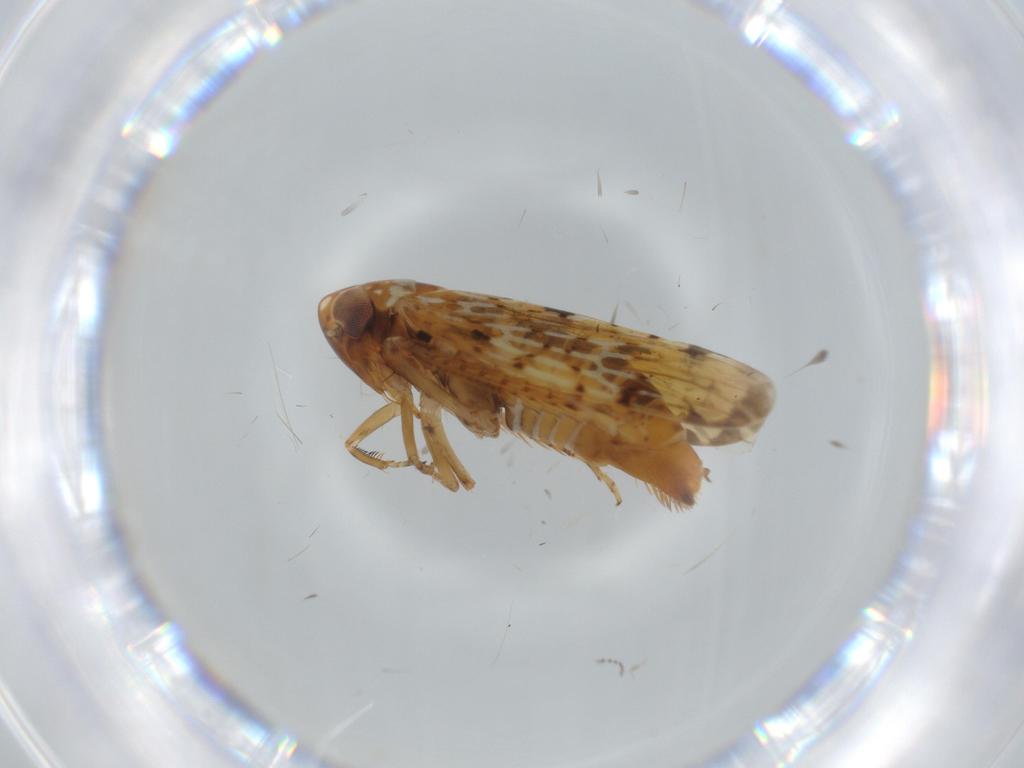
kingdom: Animalia
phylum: Arthropoda
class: Insecta
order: Hemiptera
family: Cicadellidae
